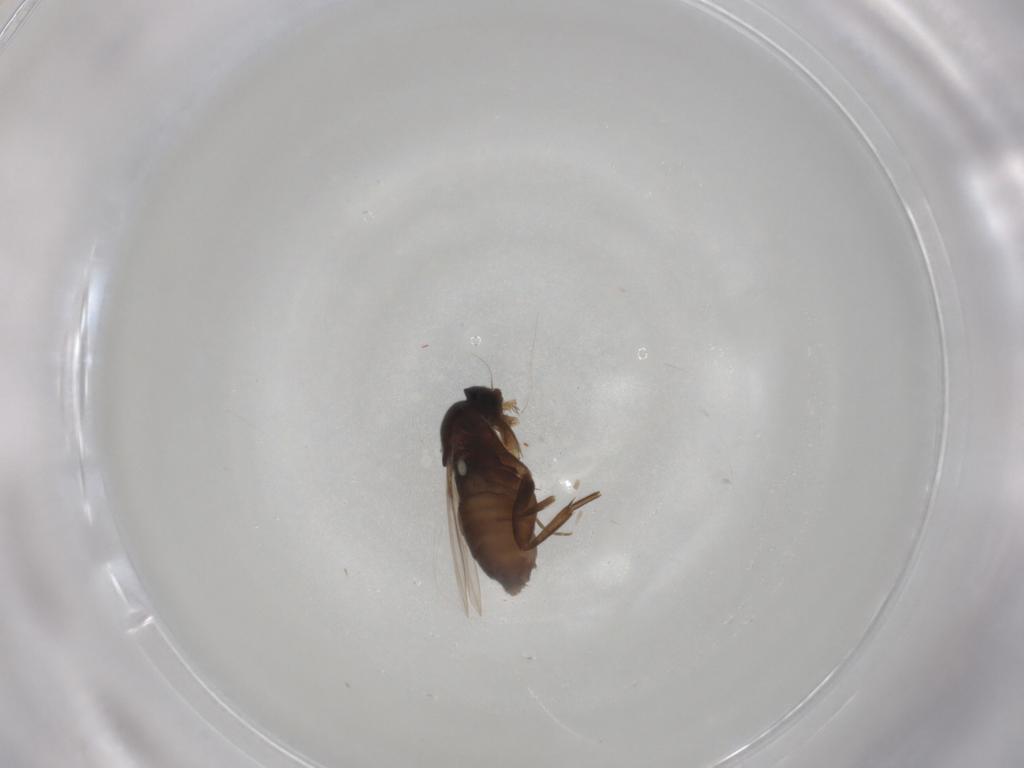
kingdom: Animalia
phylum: Arthropoda
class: Insecta
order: Diptera
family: Phoridae
